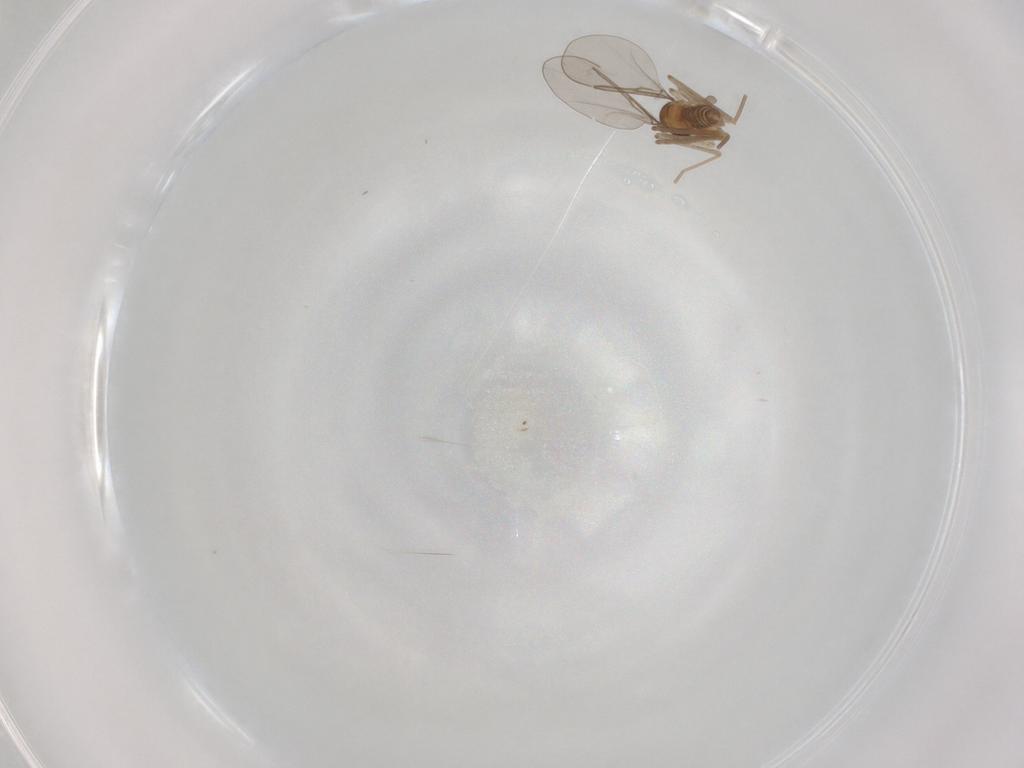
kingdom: Animalia
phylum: Arthropoda
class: Insecta
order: Diptera
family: Cecidomyiidae
